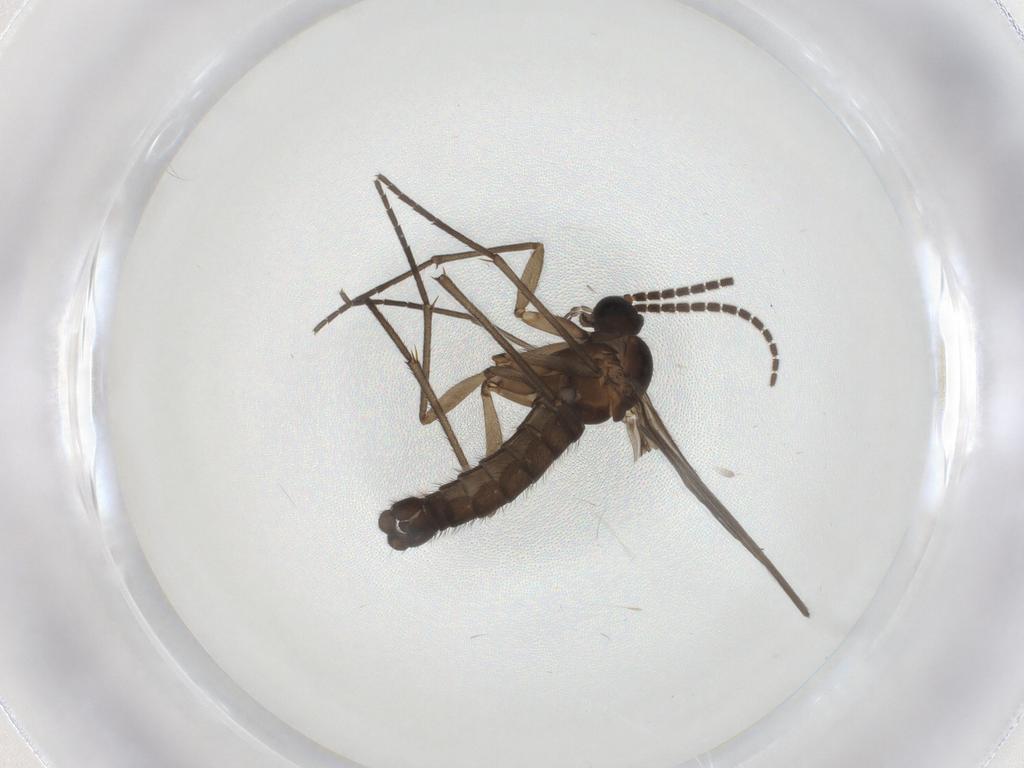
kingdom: Animalia
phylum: Arthropoda
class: Insecta
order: Diptera
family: Sciaridae
